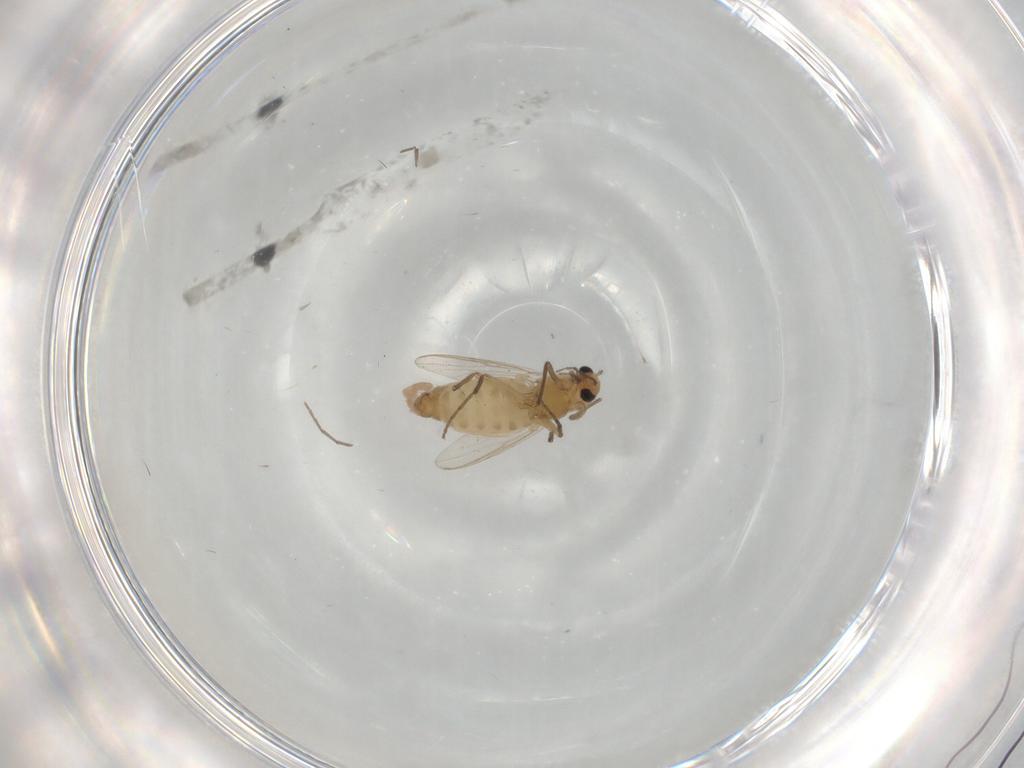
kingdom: Animalia
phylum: Arthropoda
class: Insecta
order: Diptera
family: Chironomidae
